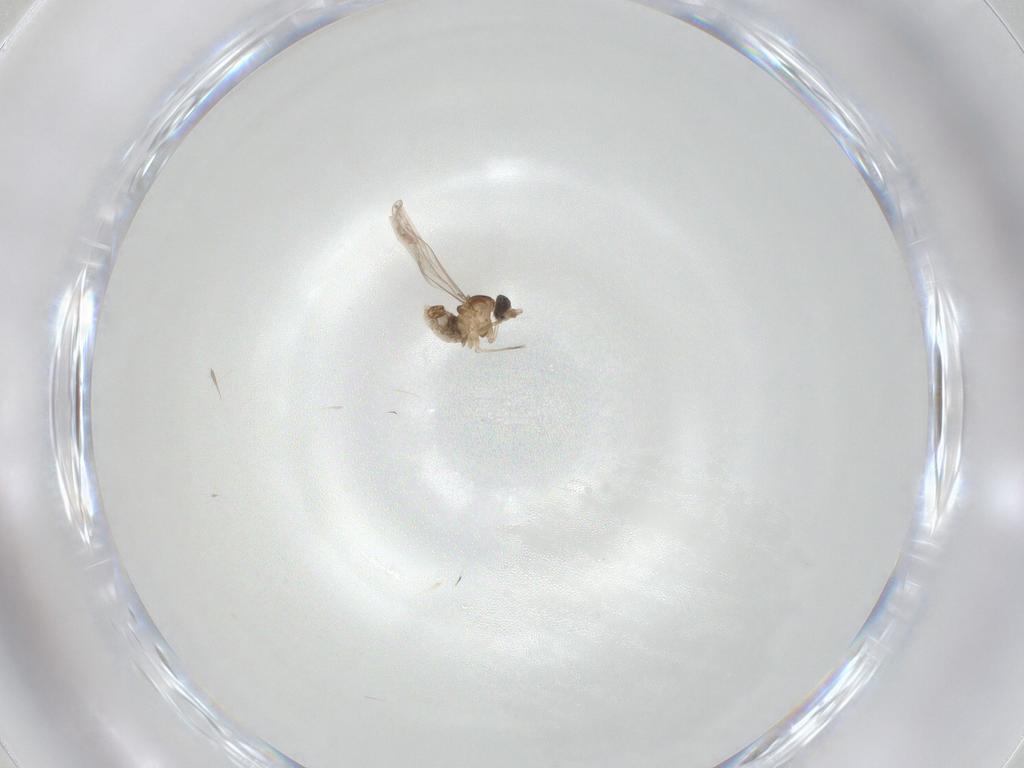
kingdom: Animalia
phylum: Arthropoda
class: Insecta
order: Diptera
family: Cecidomyiidae
